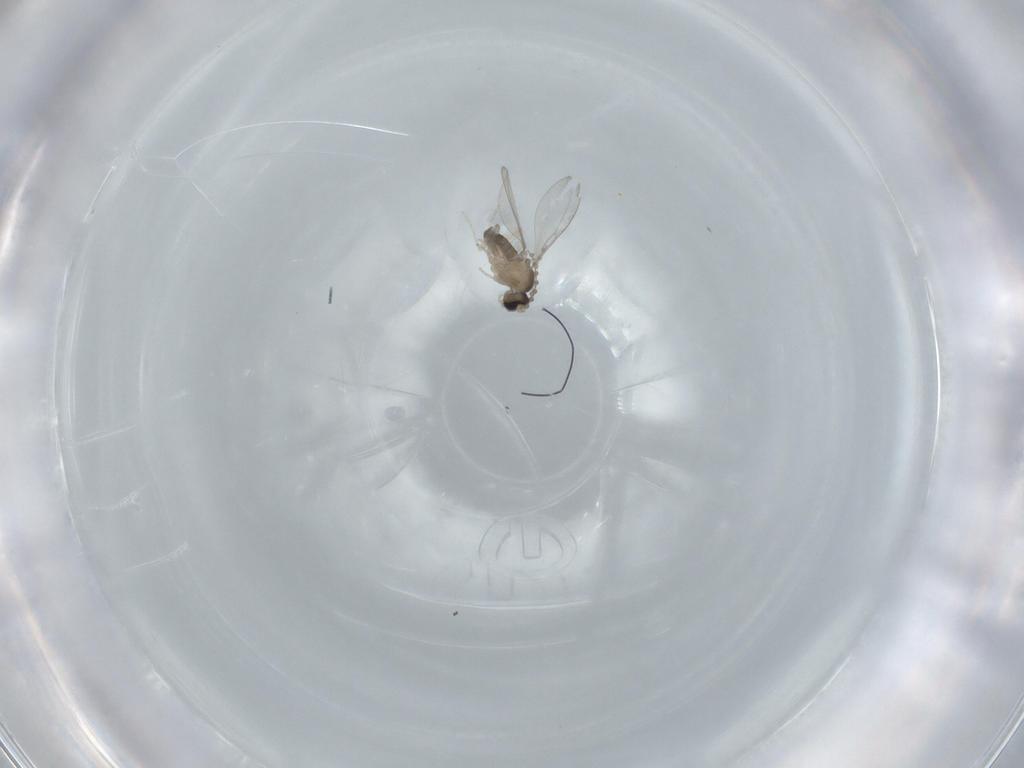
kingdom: Animalia
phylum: Arthropoda
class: Insecta
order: Diptera
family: Cecidomyiidae
